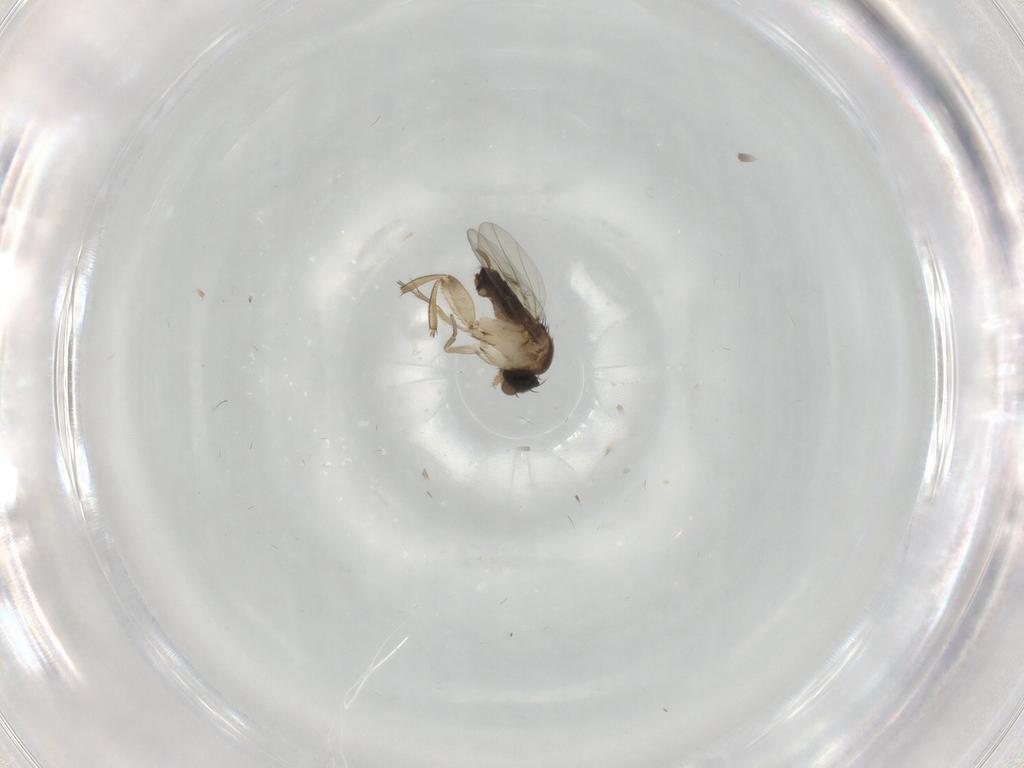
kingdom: Animalia
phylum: Arthropoda
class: Insecta
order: Diptera
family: Phoridae
